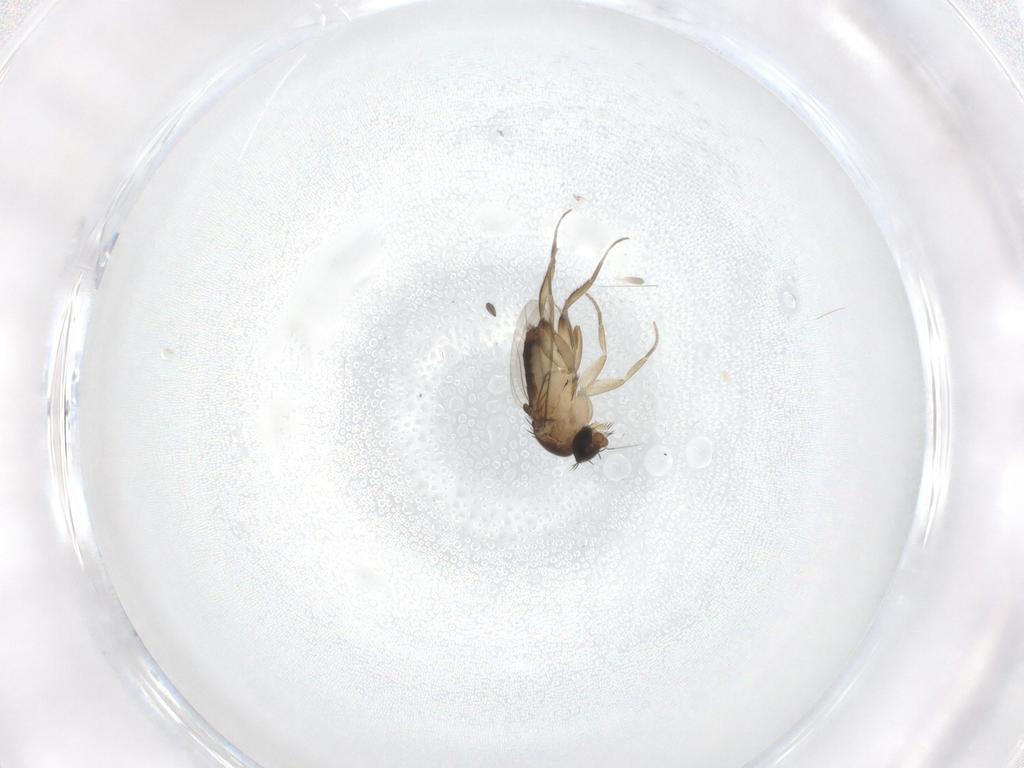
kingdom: Animalia
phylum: Arthropoda
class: Insecta
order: Diptera
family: Phoridae
